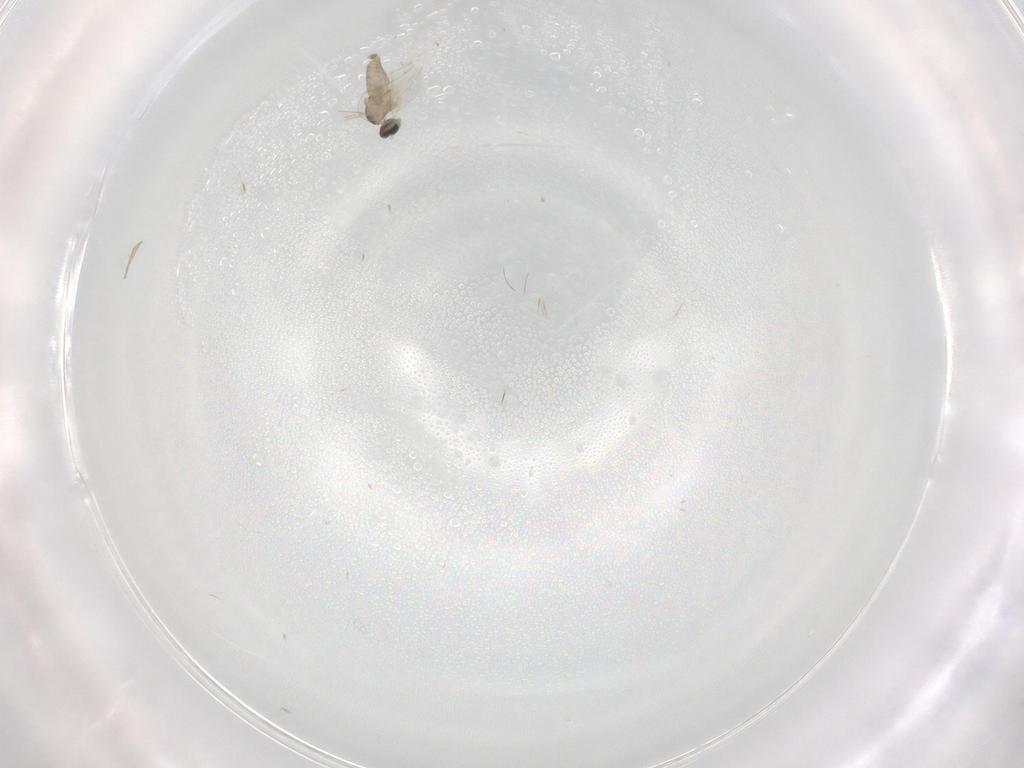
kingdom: Animalia
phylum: Arthropoda
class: Insecta
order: Diptera
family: Cecidomyiidae
